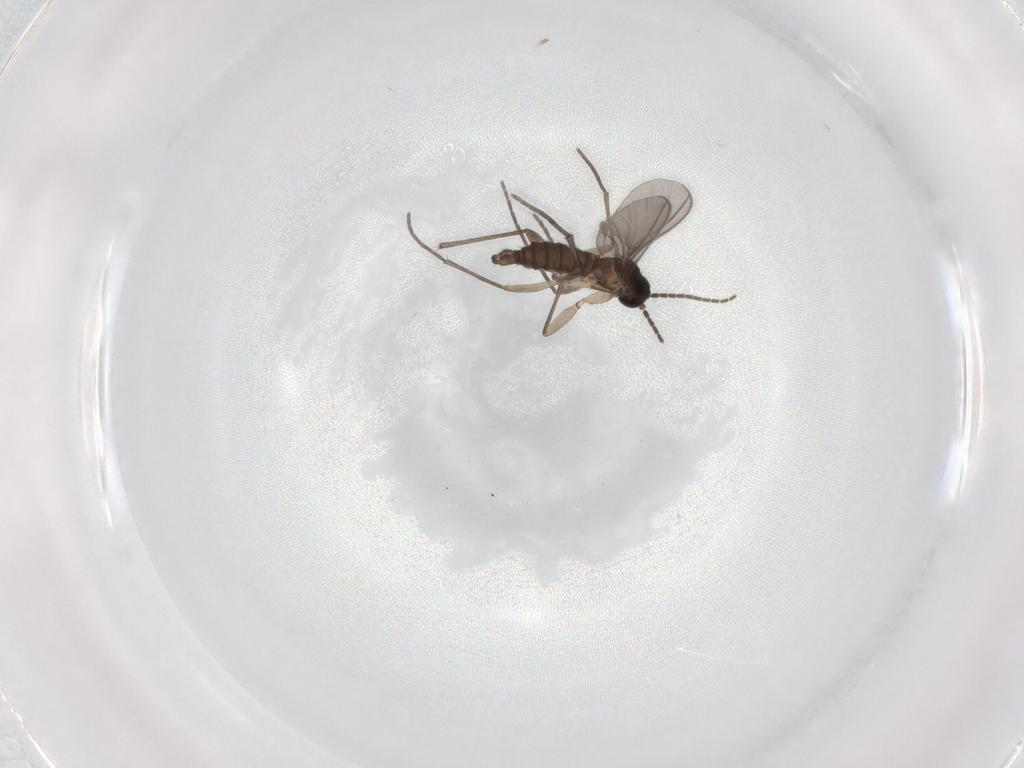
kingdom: Animalia
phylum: Arthropoda
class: Insecta
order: Diptera
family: Sciaridae
